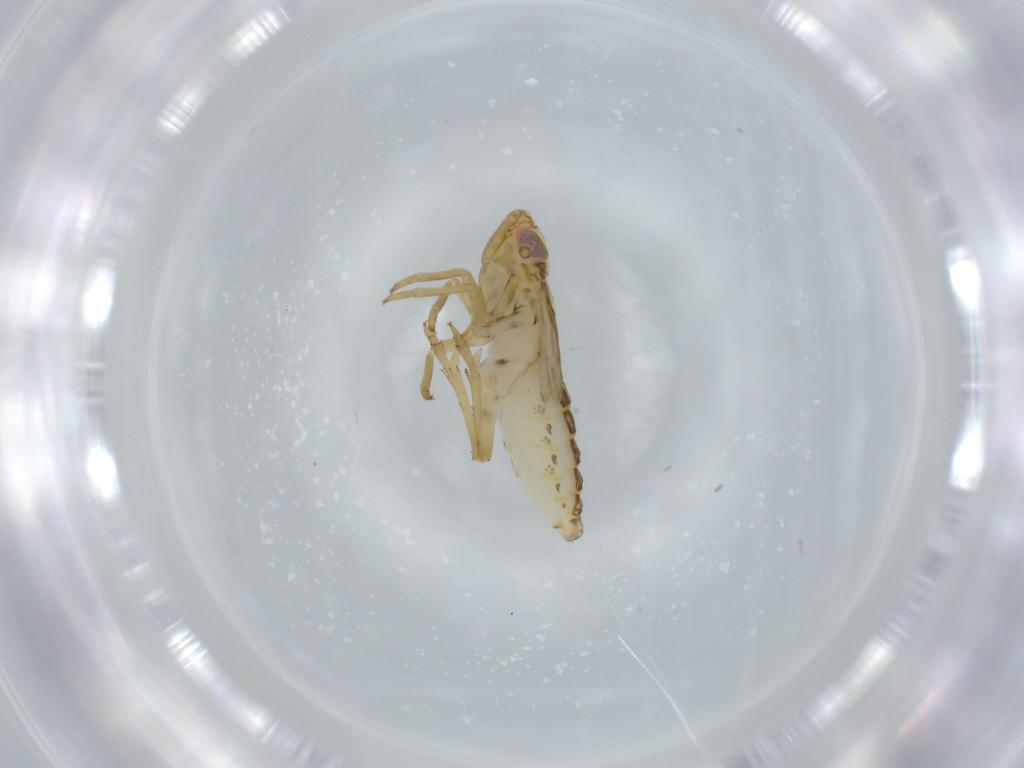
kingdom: Animalia
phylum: Arthropoda
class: Insecta
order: Hemiptera
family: Delphacidae
